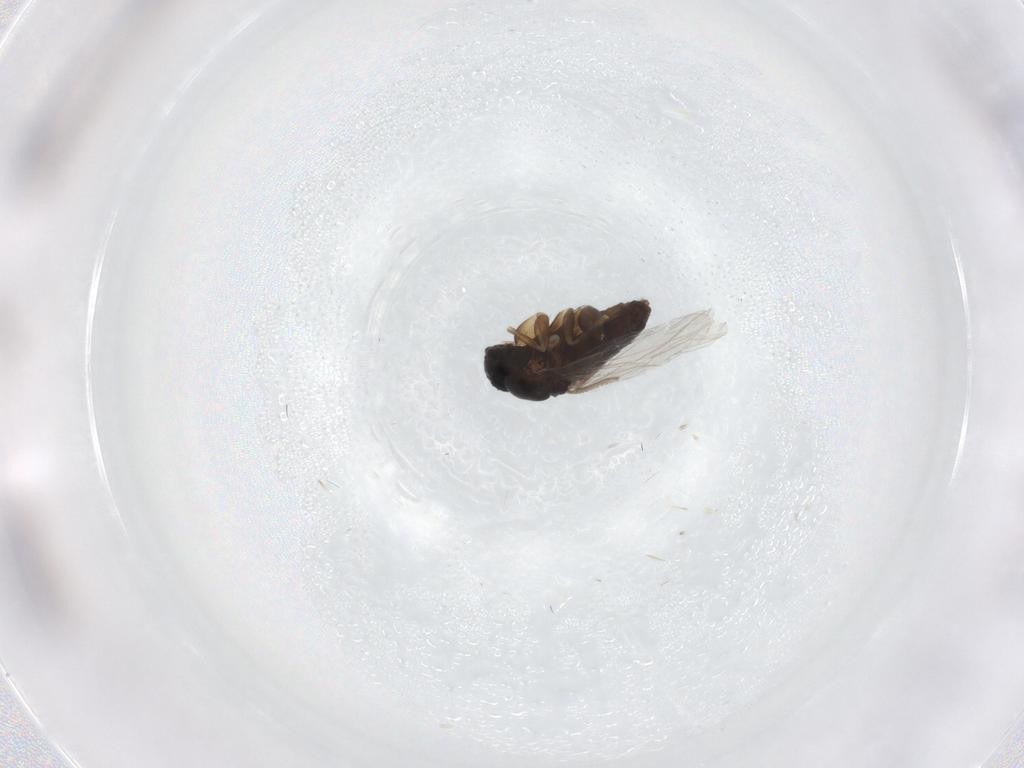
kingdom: Animalia
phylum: Arthropoda
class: Insecta
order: Diptera
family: Phoridae
